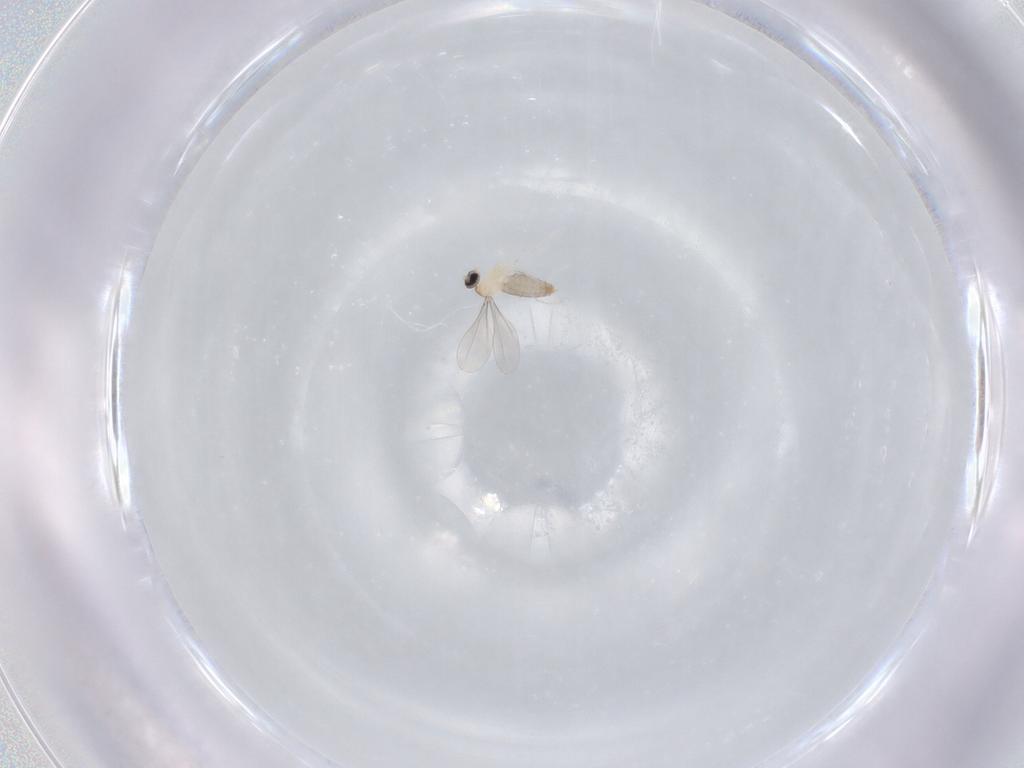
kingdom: Animalia
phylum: Arthropoda
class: Insecta
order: Diptera
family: Cecidomyiidae
